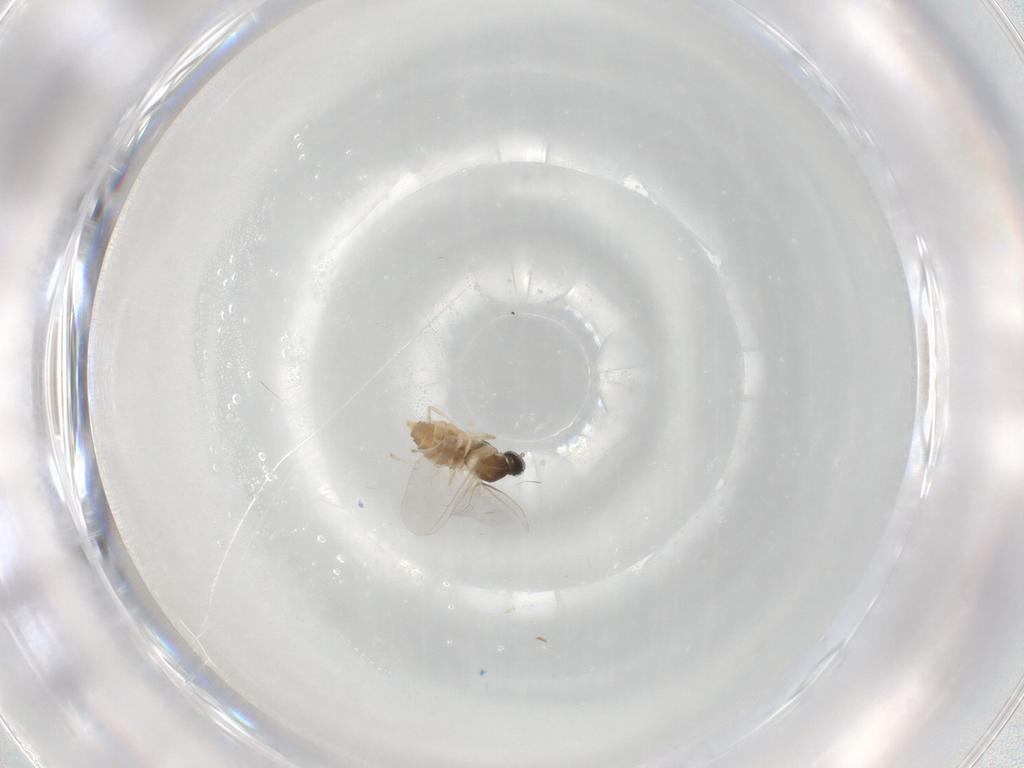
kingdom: Animalia
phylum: Arthropoda
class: Insecta
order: Diptera
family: Cecidomyiidae
